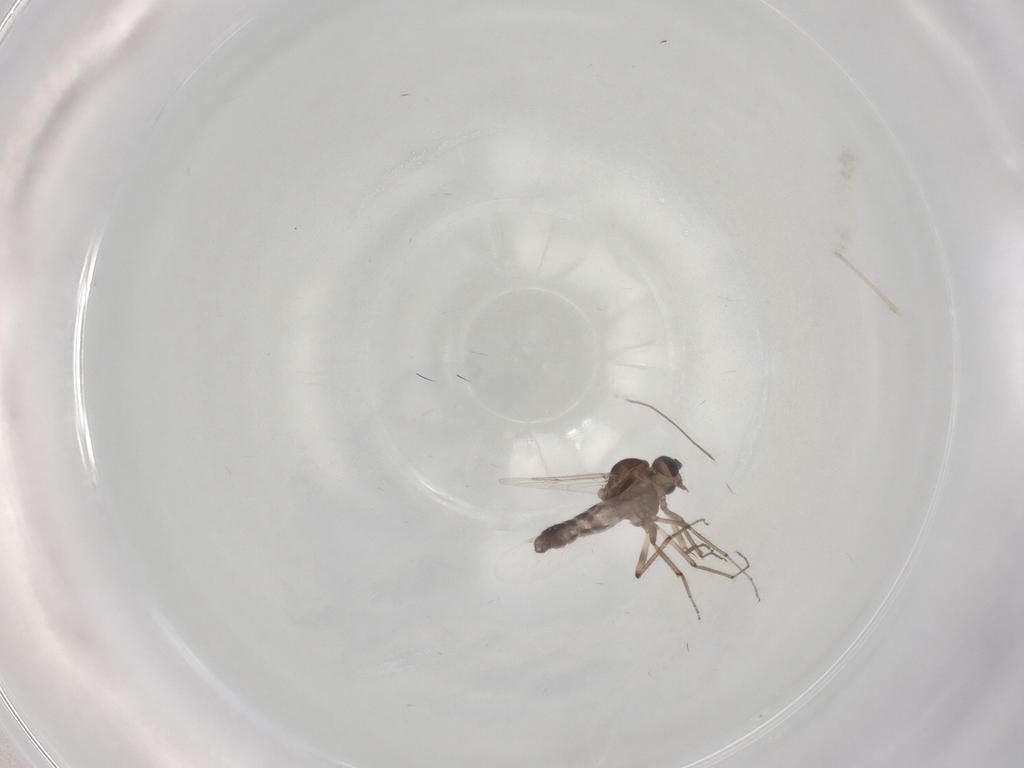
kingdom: Animalia
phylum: Arthropoda
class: Insecta
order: Diptera
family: Ceratopogonidae
